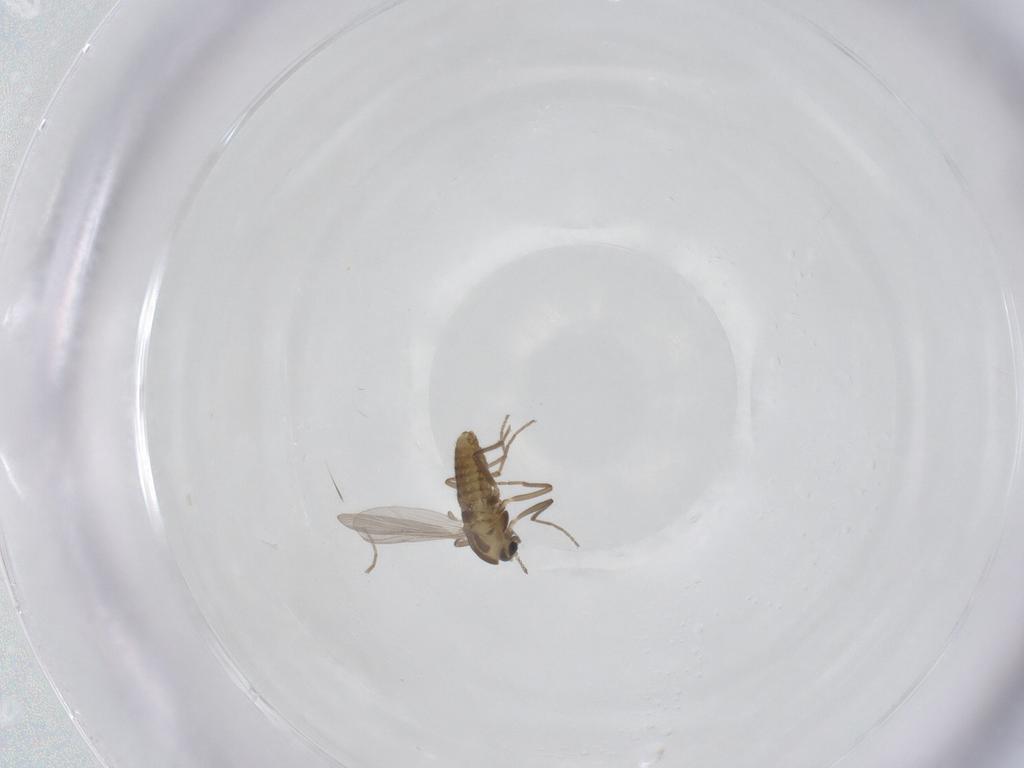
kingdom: Animalia
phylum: Arthropoda
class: Insecta
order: Diptera
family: Chironomidae
